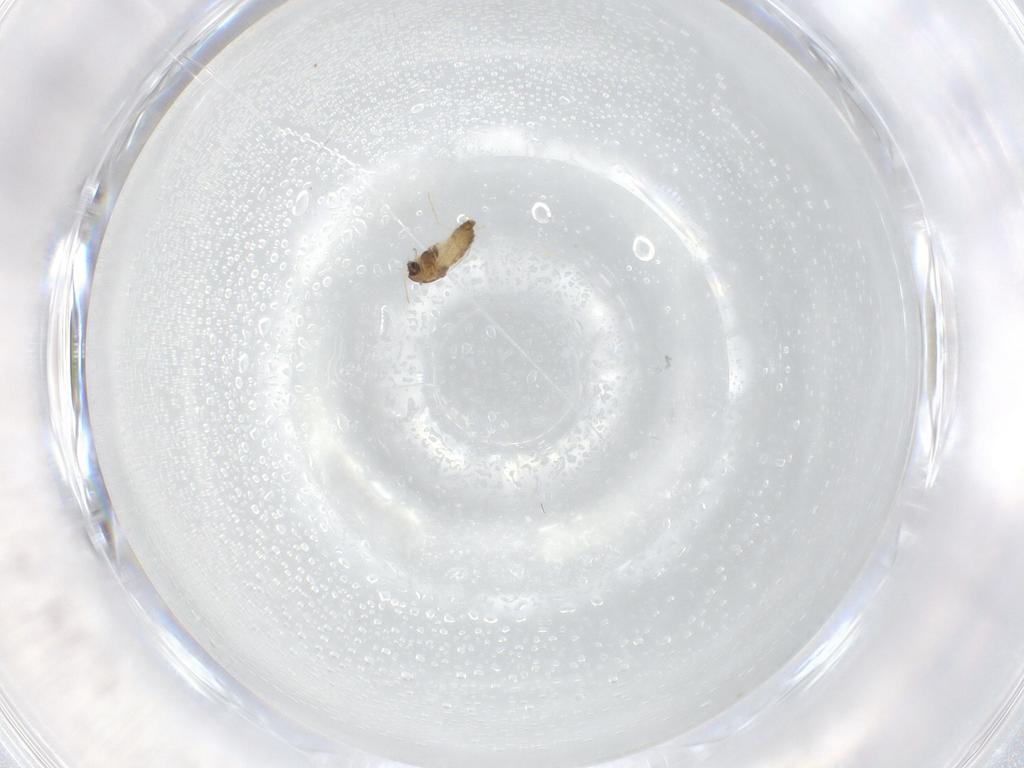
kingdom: Animalia
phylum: Arthropoda
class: Insecta
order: Diptera
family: Chironomidae
